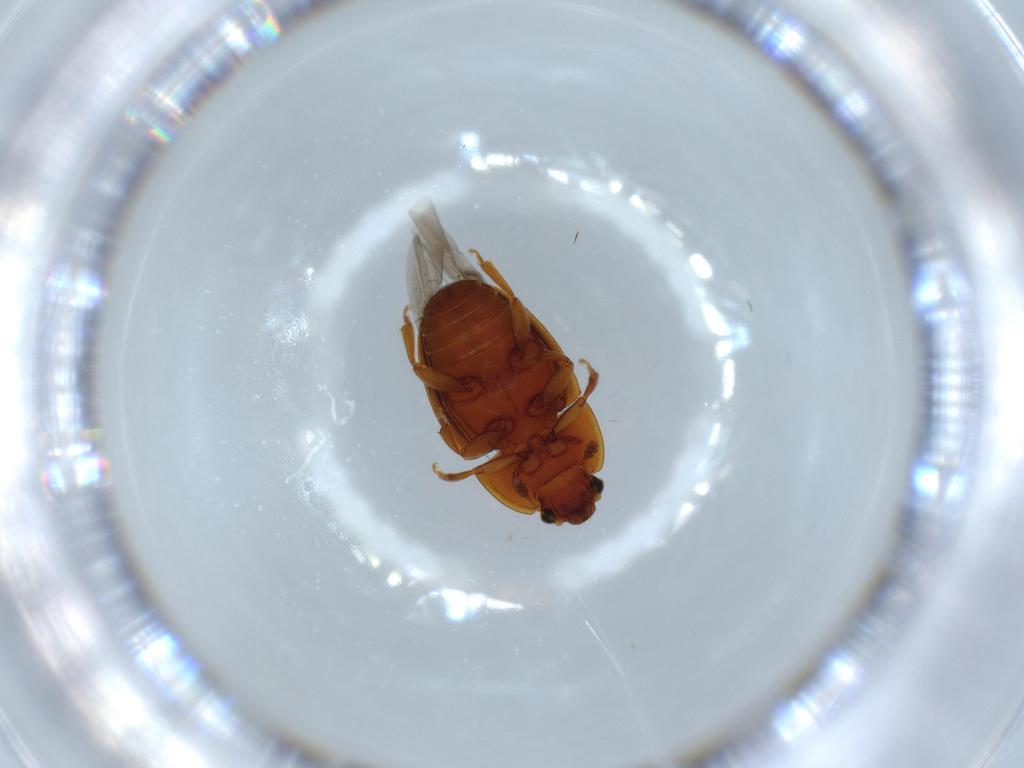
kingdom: Animalia
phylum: Arthropoda
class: Insecta
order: Coleoptera
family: Nitidulidae
